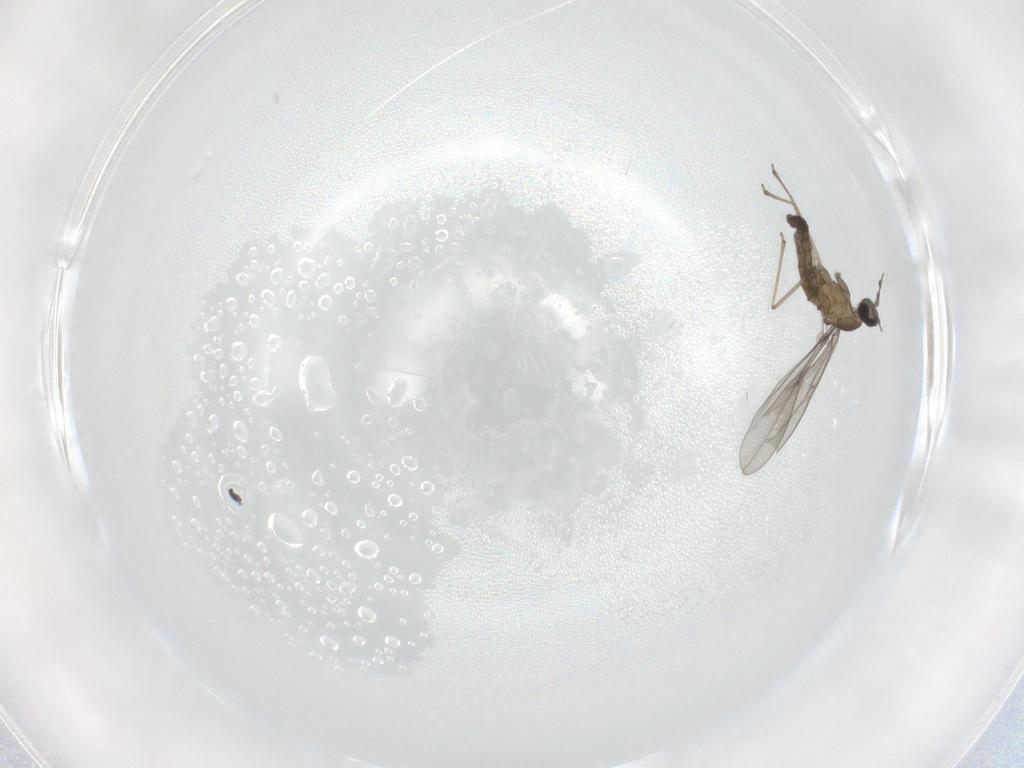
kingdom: Animalia
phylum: Arthropoda
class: Insecta
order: Diptera
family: Cecidomyiidae
